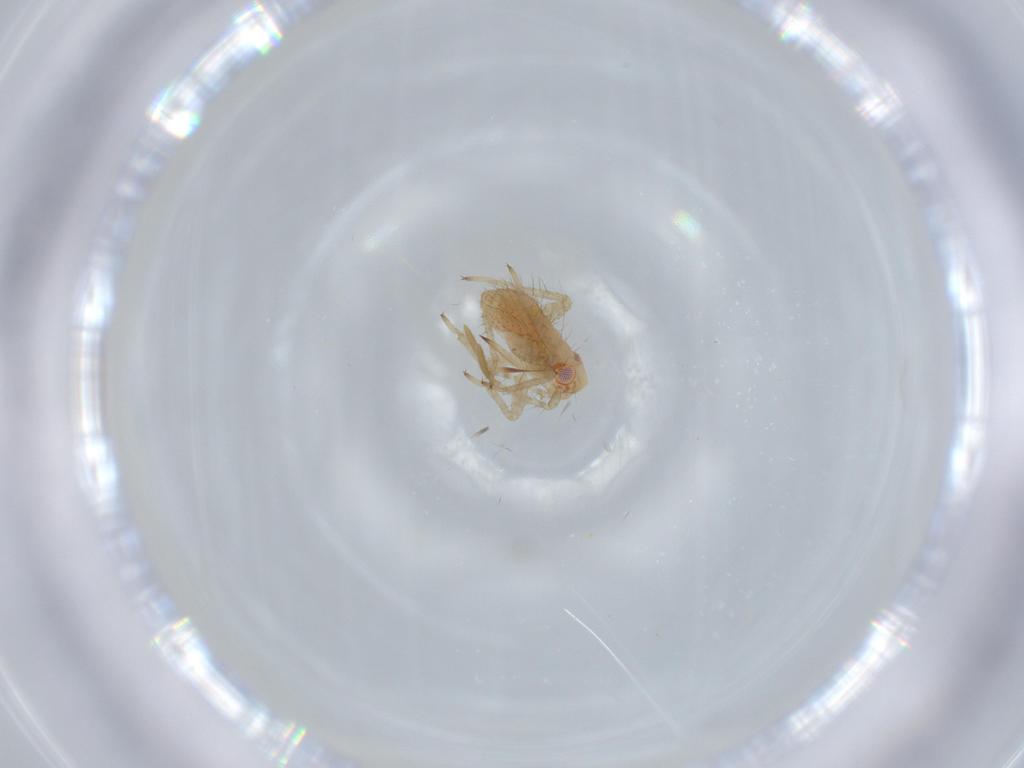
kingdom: Animalia
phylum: Arthropoda
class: Insecta
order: Hemiptera
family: Miridae
